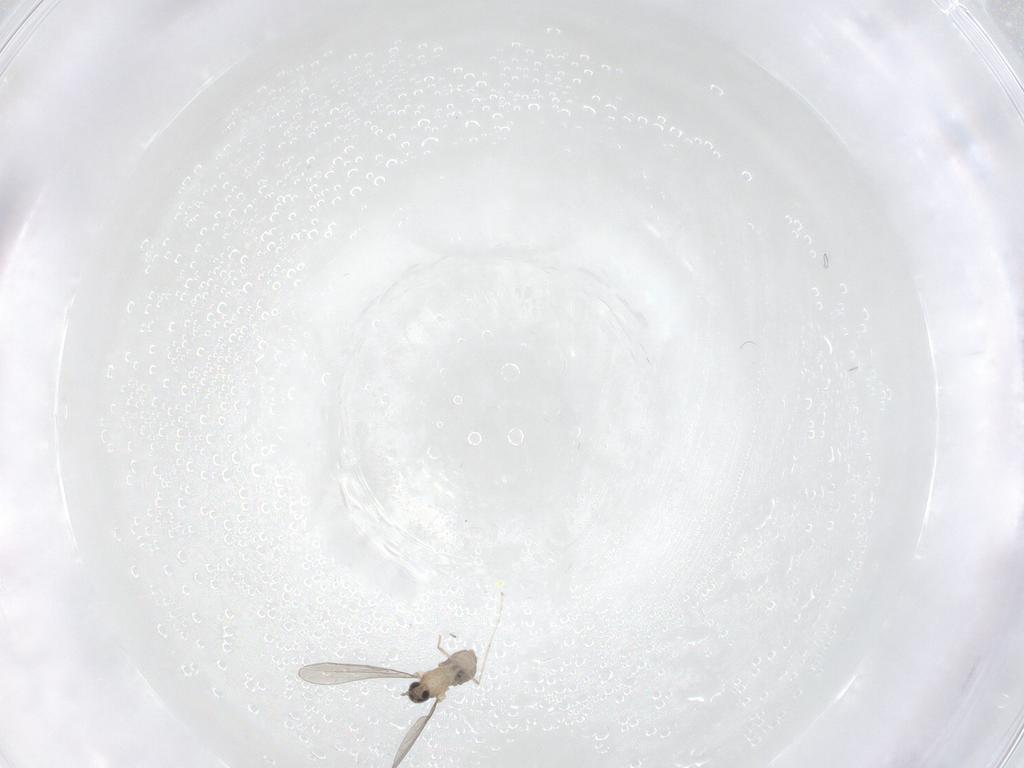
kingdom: Animalia
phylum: Arthropoda
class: Insecta
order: Diptera
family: Cecidomyiidae
